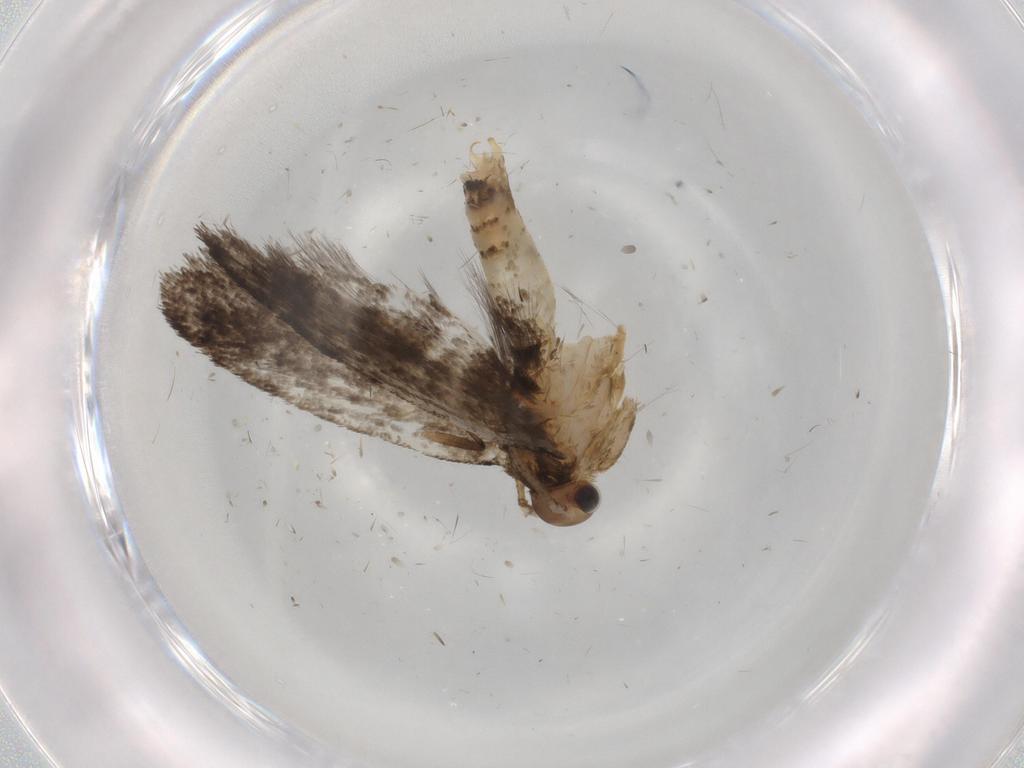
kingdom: Animalia
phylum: Arthropoda
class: Insecta
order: Lepidoptera
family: Tineidae
